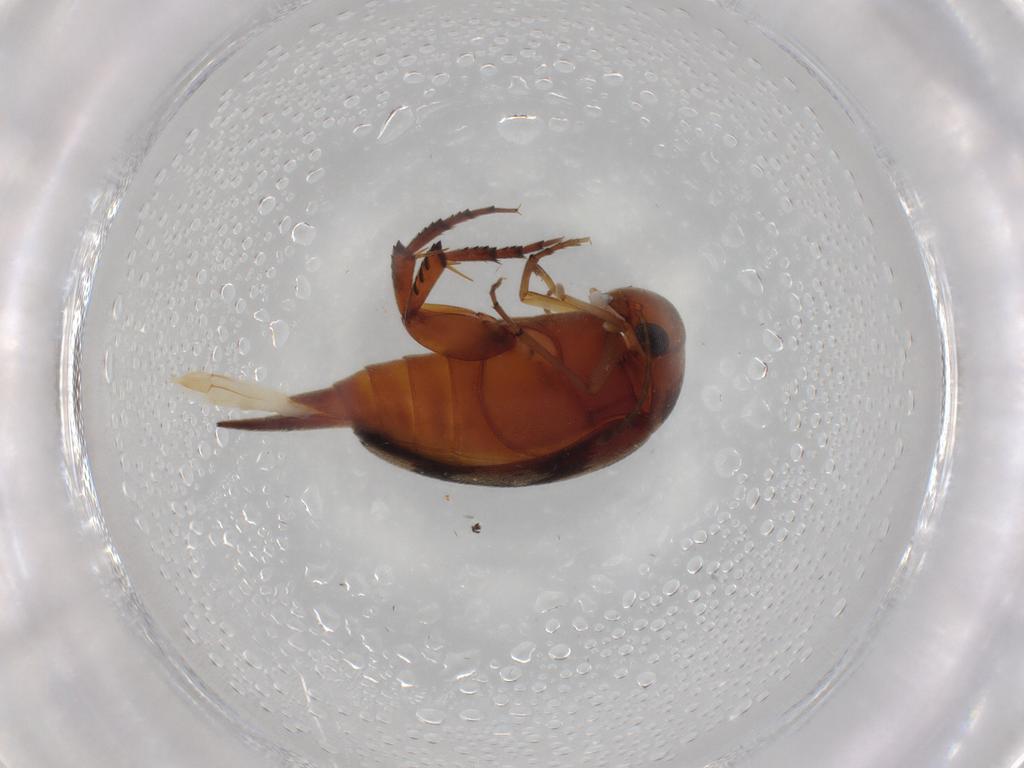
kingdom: Animalia
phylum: Arthropoda
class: Insecta
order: Coleoptera
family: Mordellidae
